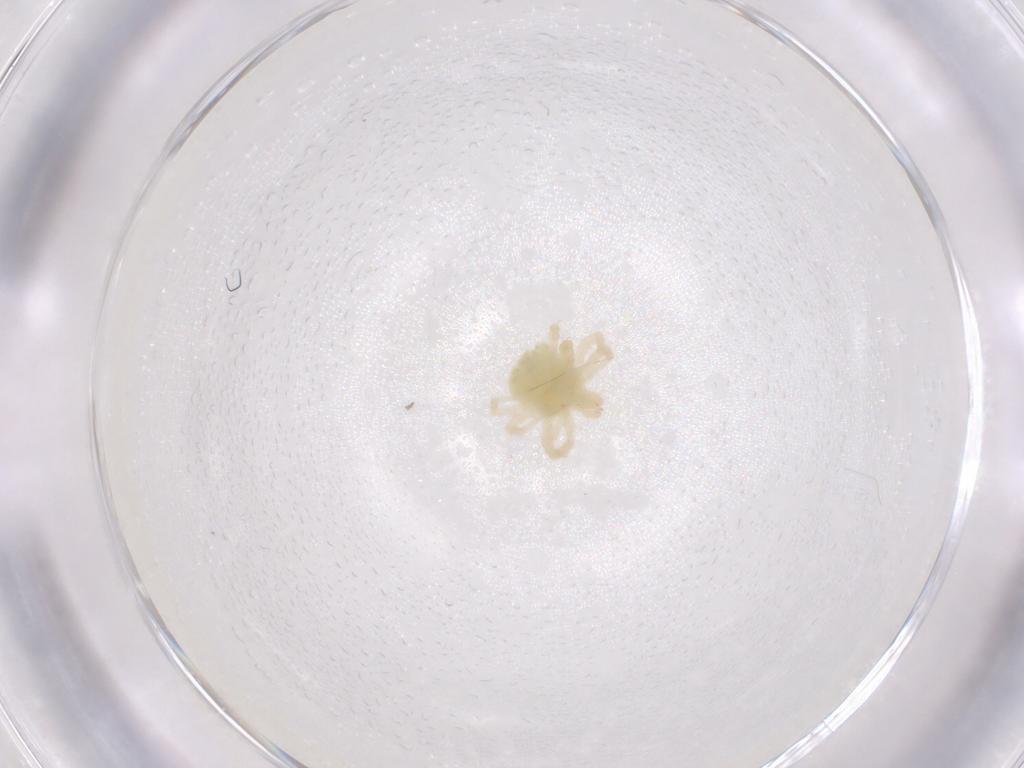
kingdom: Animalia
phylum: Arthropoda
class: Arachnida
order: Trombidiformes
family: Anystidae
